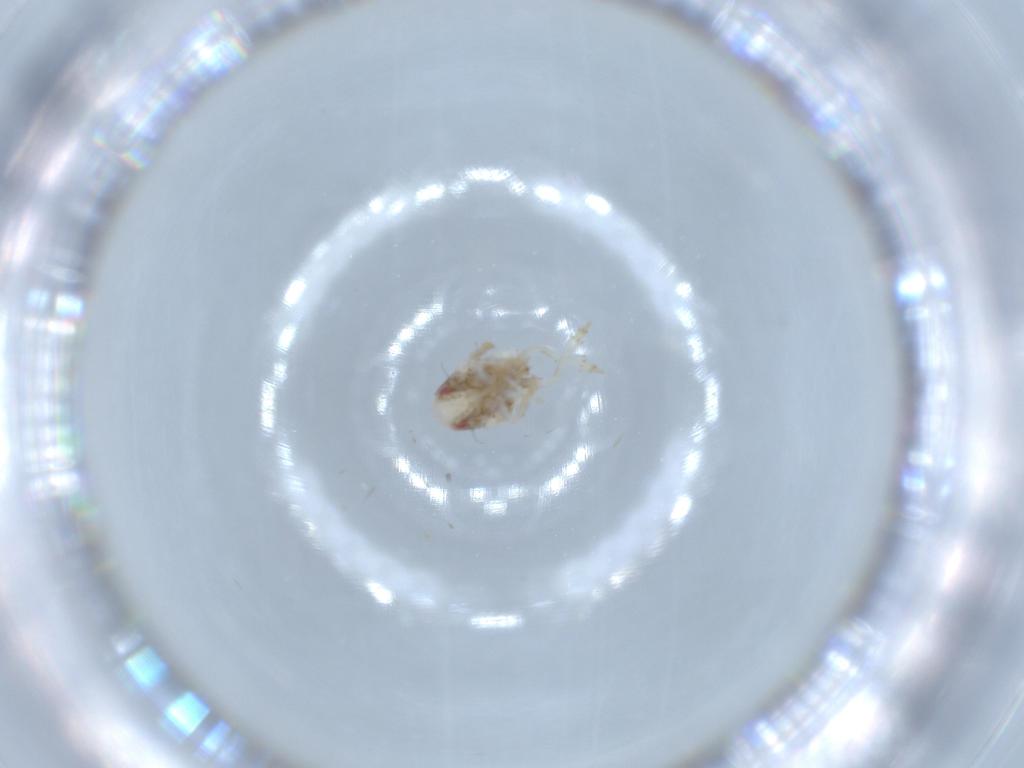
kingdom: Animalia
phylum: Arthropoda
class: Insecta
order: Hemiptera
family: Acanaloniidae
